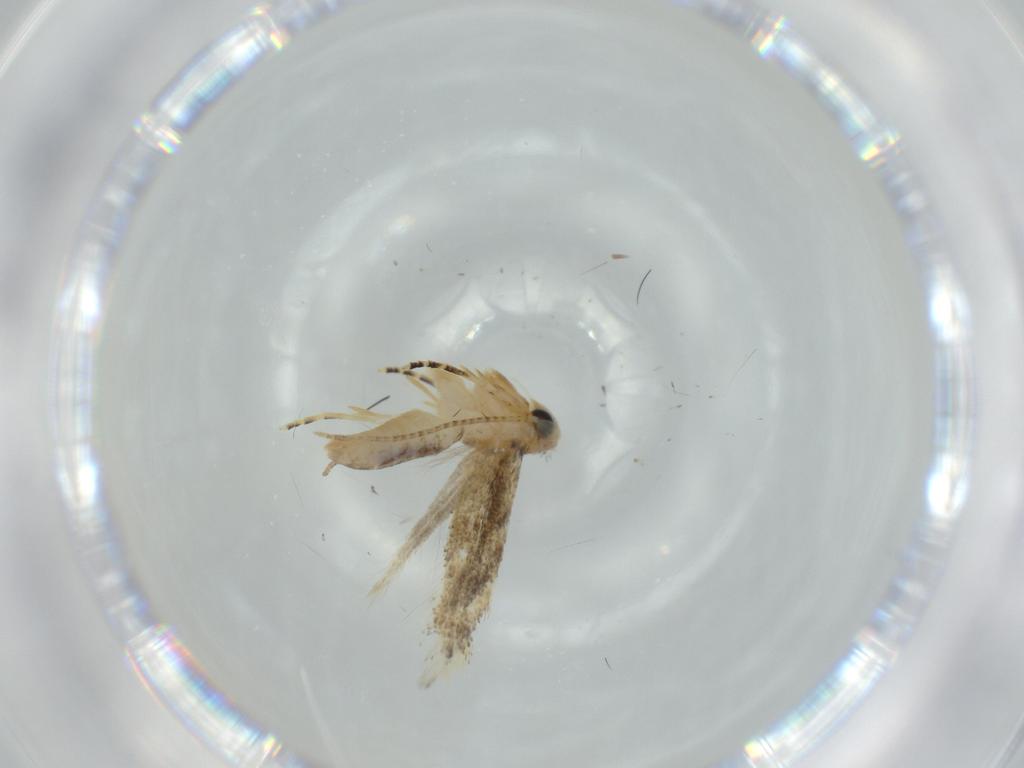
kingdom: Animalia
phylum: Arthropoda
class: Insecta
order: Lepidoptera
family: Bucculatricidae
